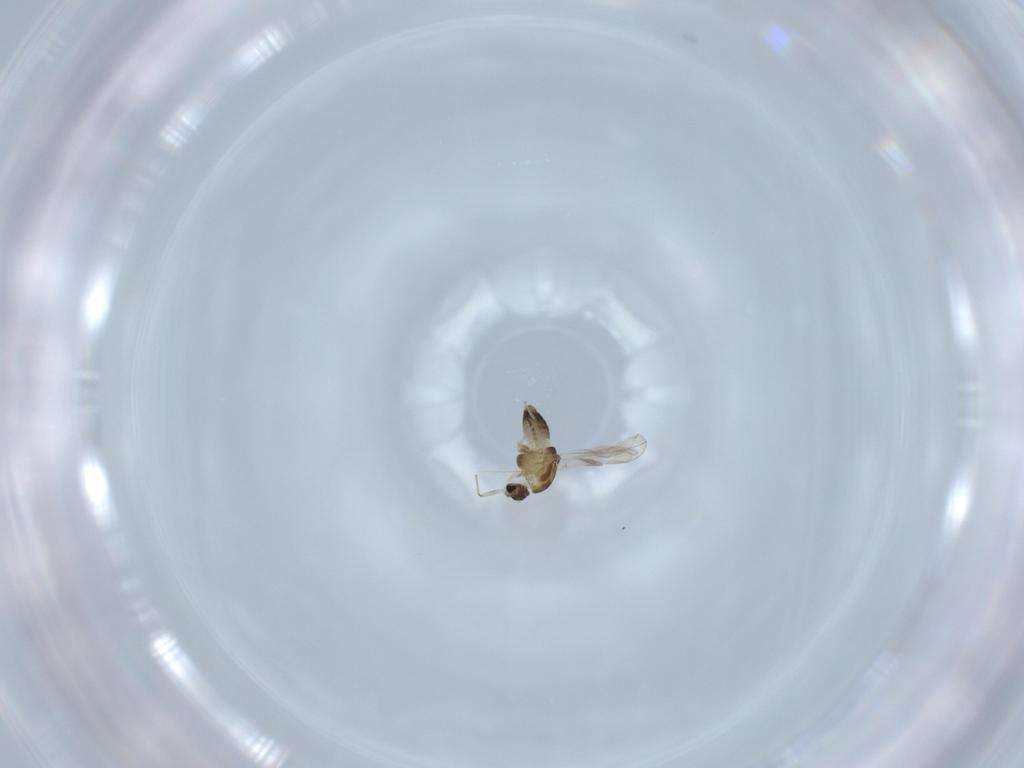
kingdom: Animalia
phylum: Arthropoda
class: Insecta
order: Diptera
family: Chironomidae
